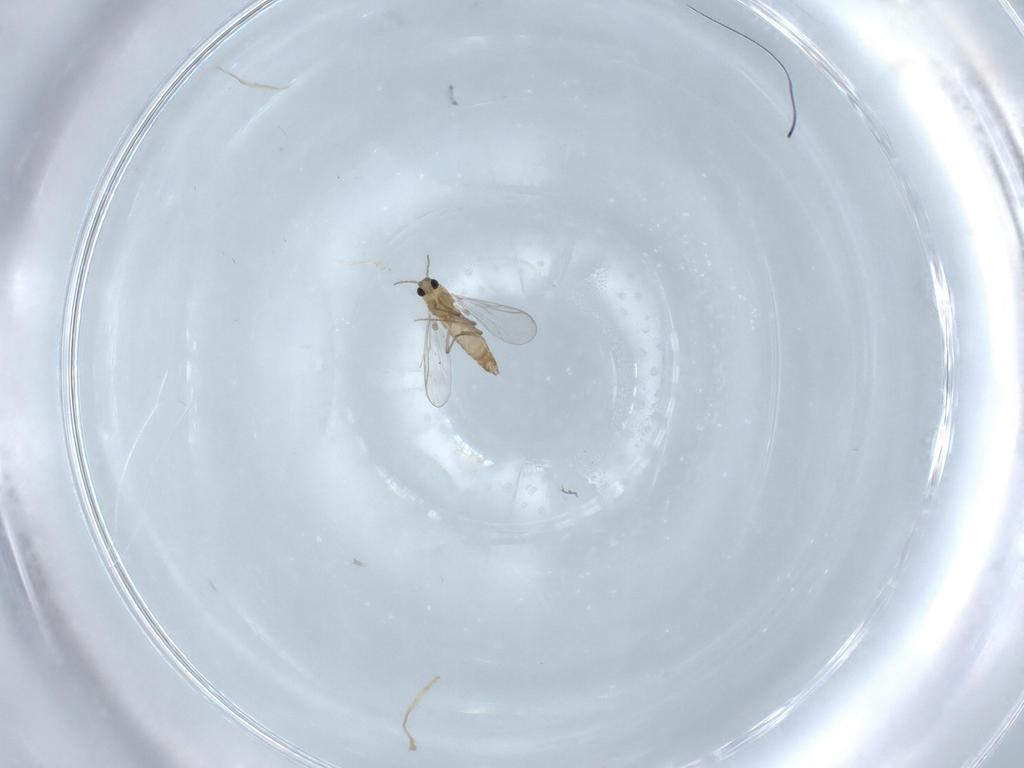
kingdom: Animalia
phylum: Arthropoda
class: Insecta
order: Diptera
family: Chironomidae
